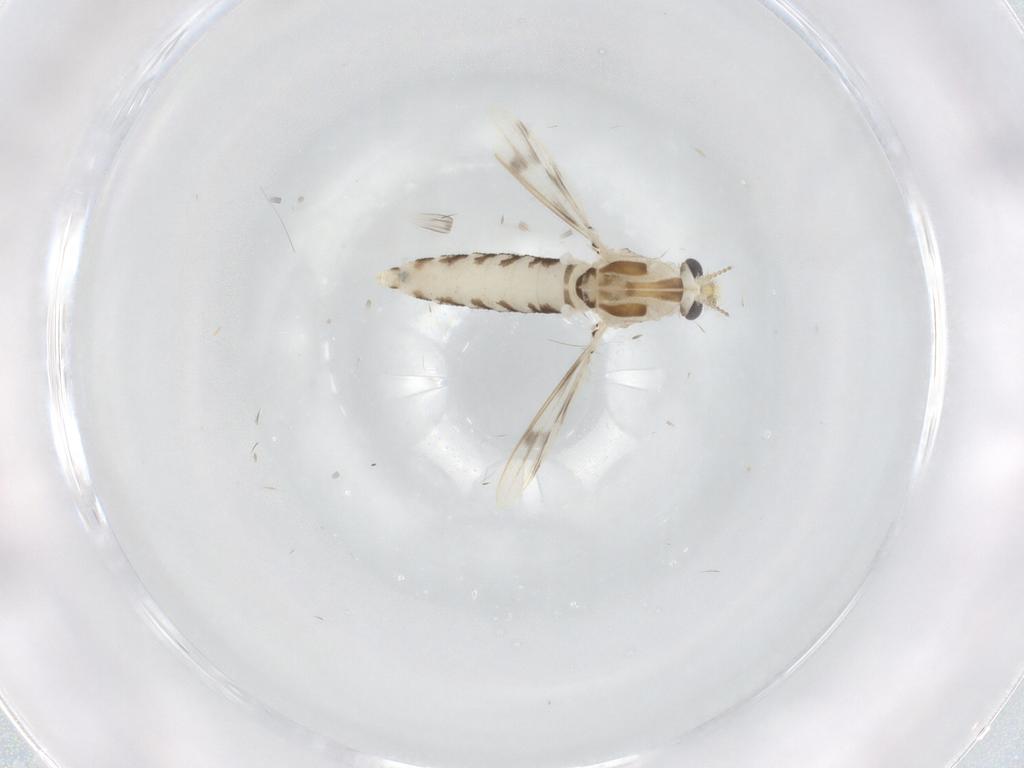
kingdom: Animalia
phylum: Arthropoda
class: Insecta
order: Diptera
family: Corethrellidae
